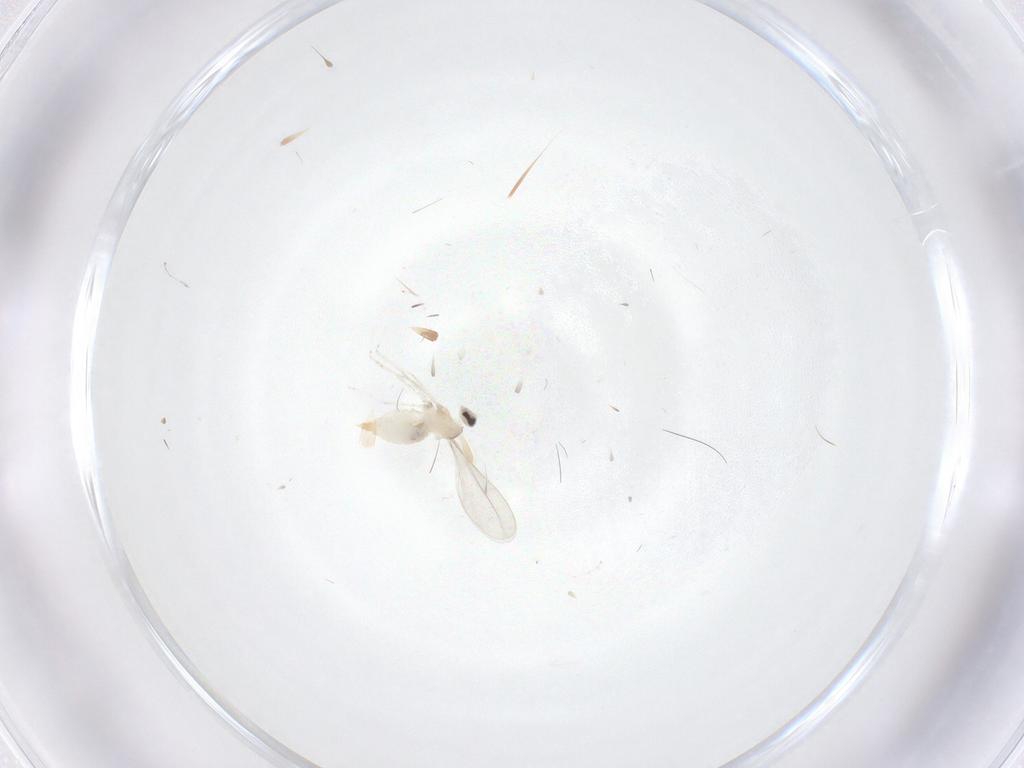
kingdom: Animalia
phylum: Arthropoda
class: Insecta
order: Diptera
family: Cecidomyiidae
